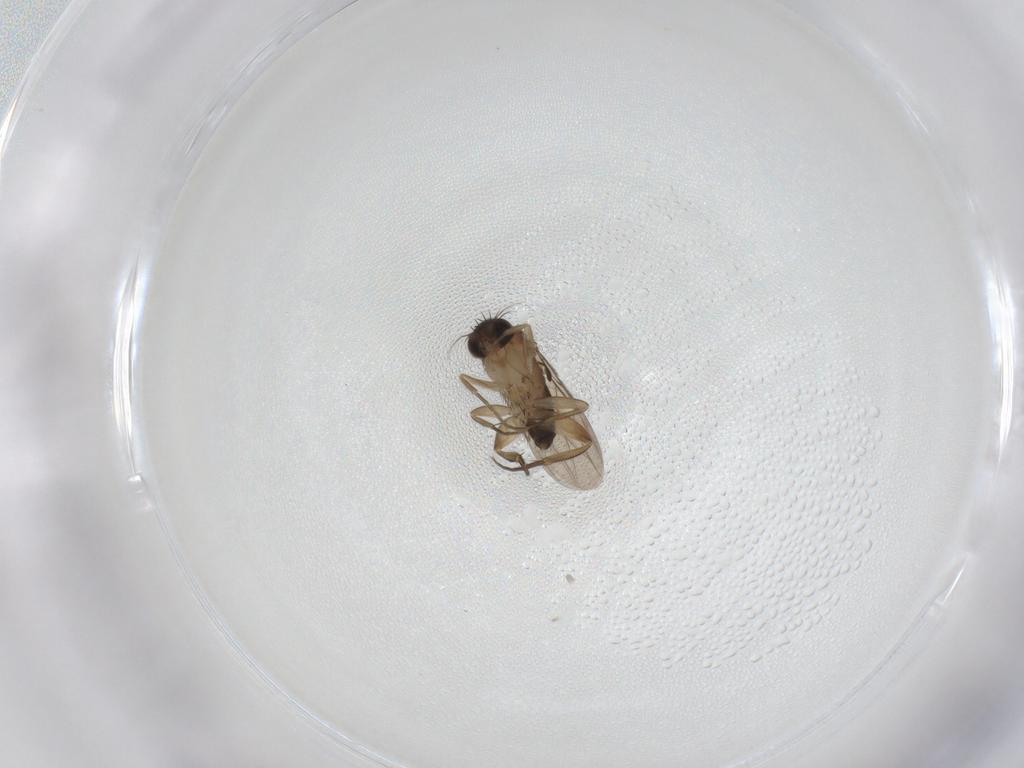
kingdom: Animalia
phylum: Arthropoda
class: Insecta
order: Diptera
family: Phoridae
